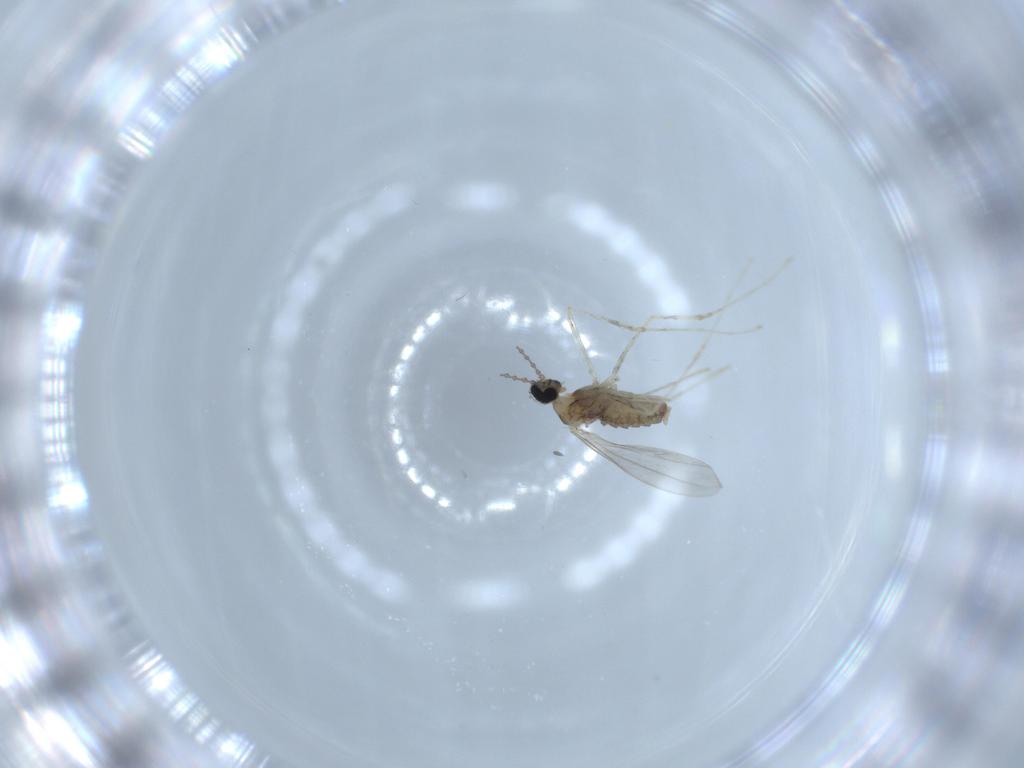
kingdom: Animalia
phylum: Arthropoda
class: Insecta
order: Diptera
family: Cecidomyiidae
